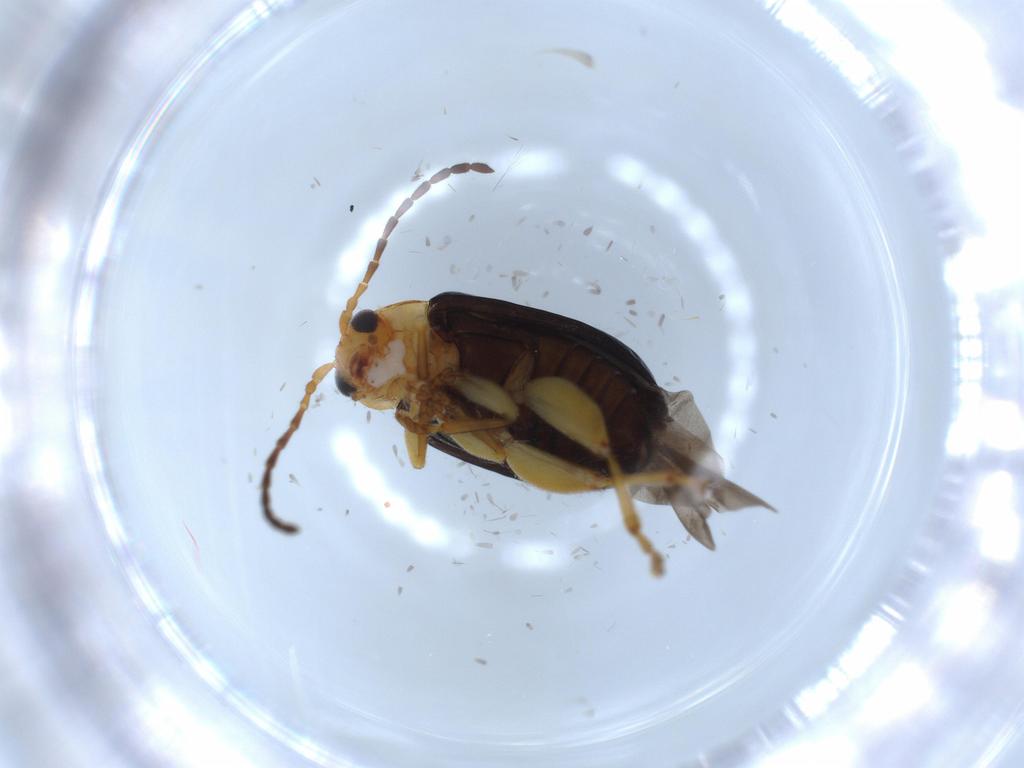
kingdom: Animalia
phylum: Arthropoda
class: Insecta
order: Coleoptera
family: Chrysomelidae
